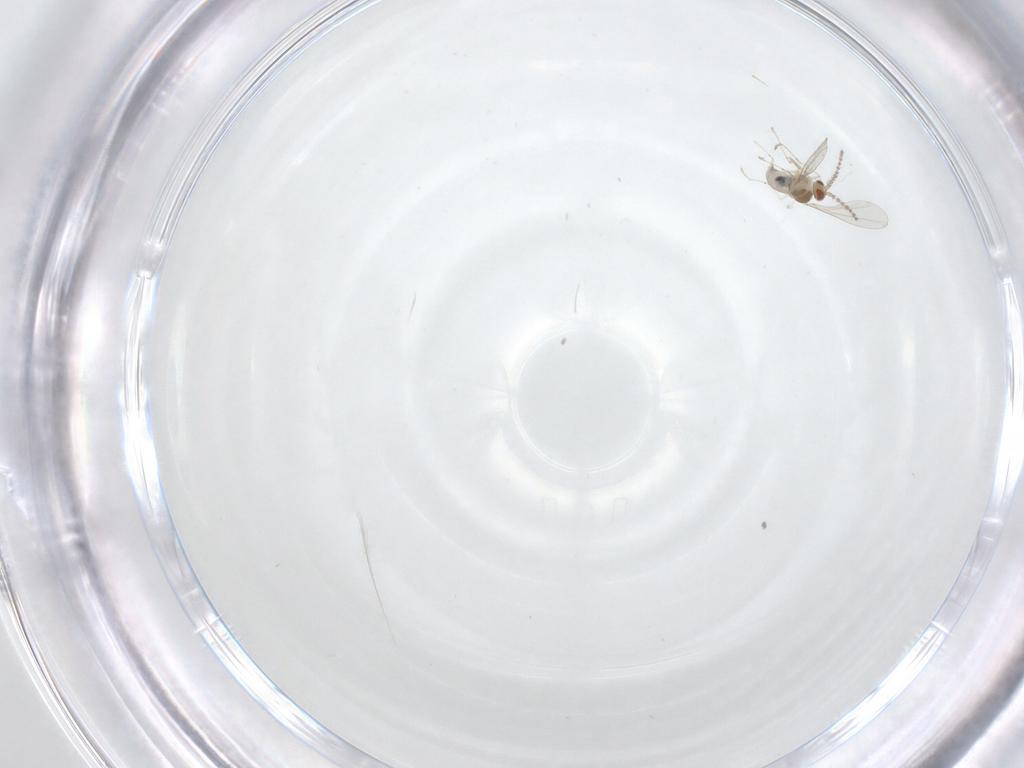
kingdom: Animalia
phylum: Arthropoda
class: Insecta
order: Diptera
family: Cecidomyiidae
